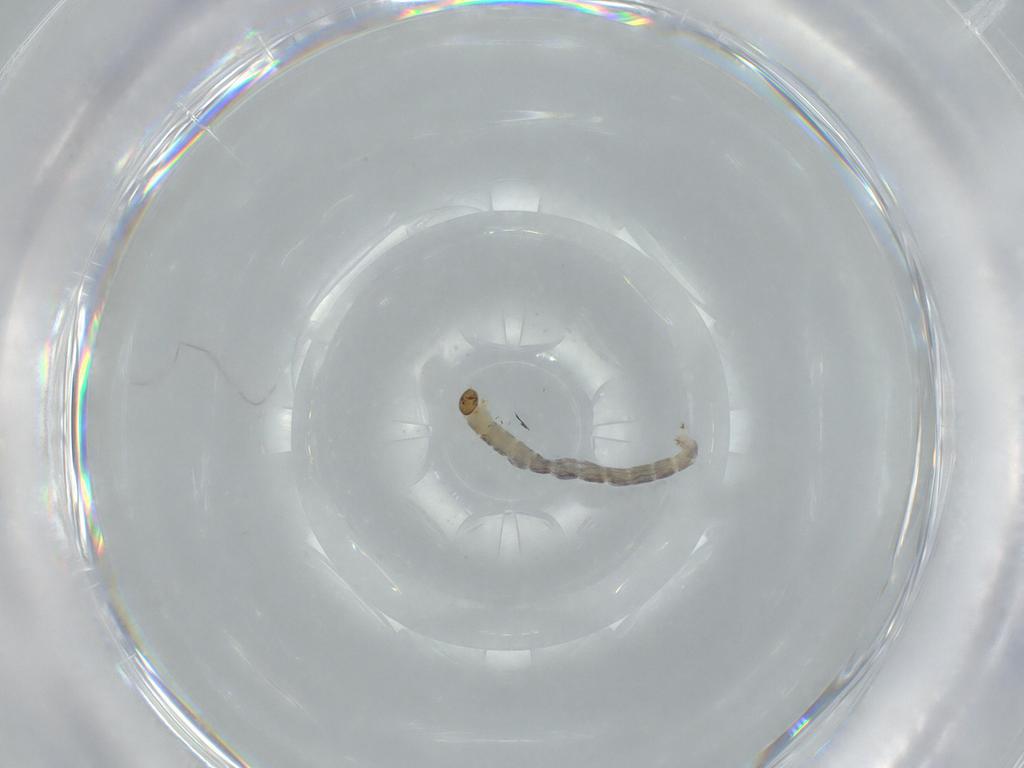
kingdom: Animalia
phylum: Arthropoda
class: Insecta
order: Diptera
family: Chironomidae
